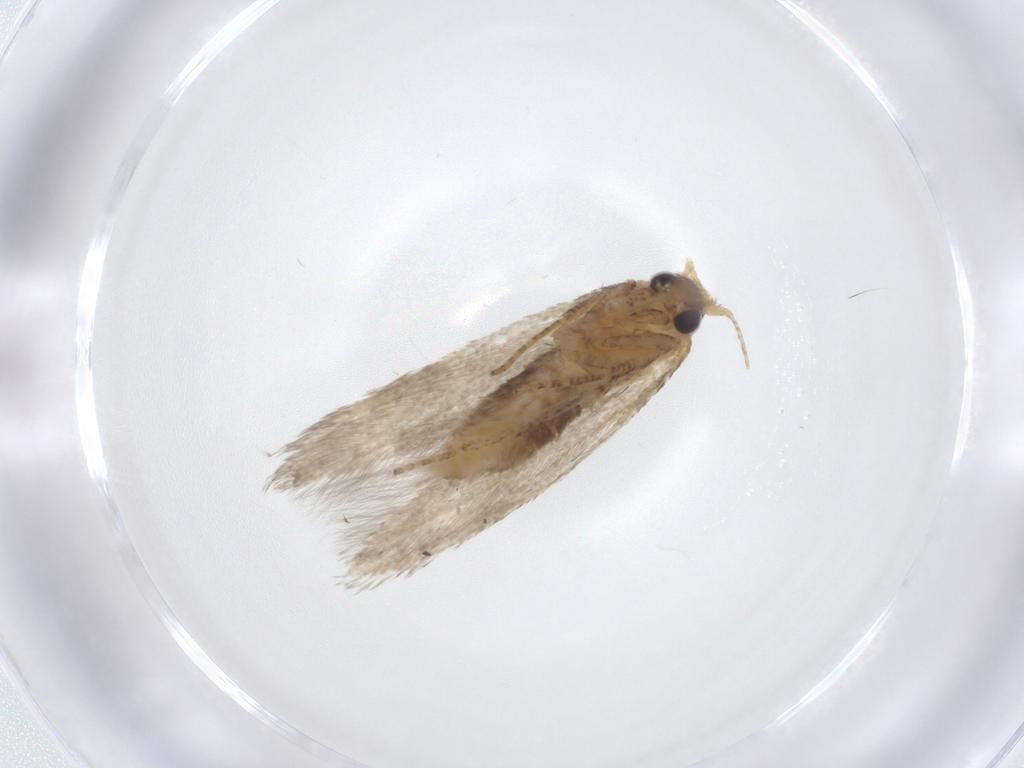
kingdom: Animalia
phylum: Arthropoda
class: Insecta
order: Lepidoptera
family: Blastobasidae
